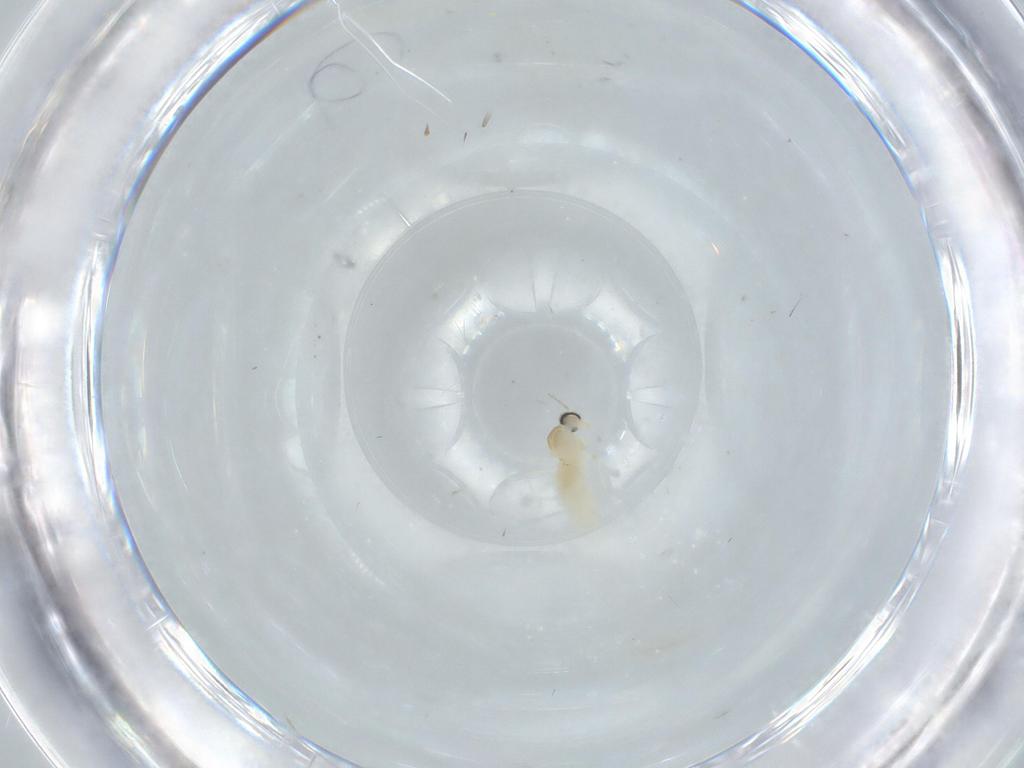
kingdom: Animalia
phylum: Arthropoda
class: Insecta
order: Diptera
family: Cecidomyiidae
